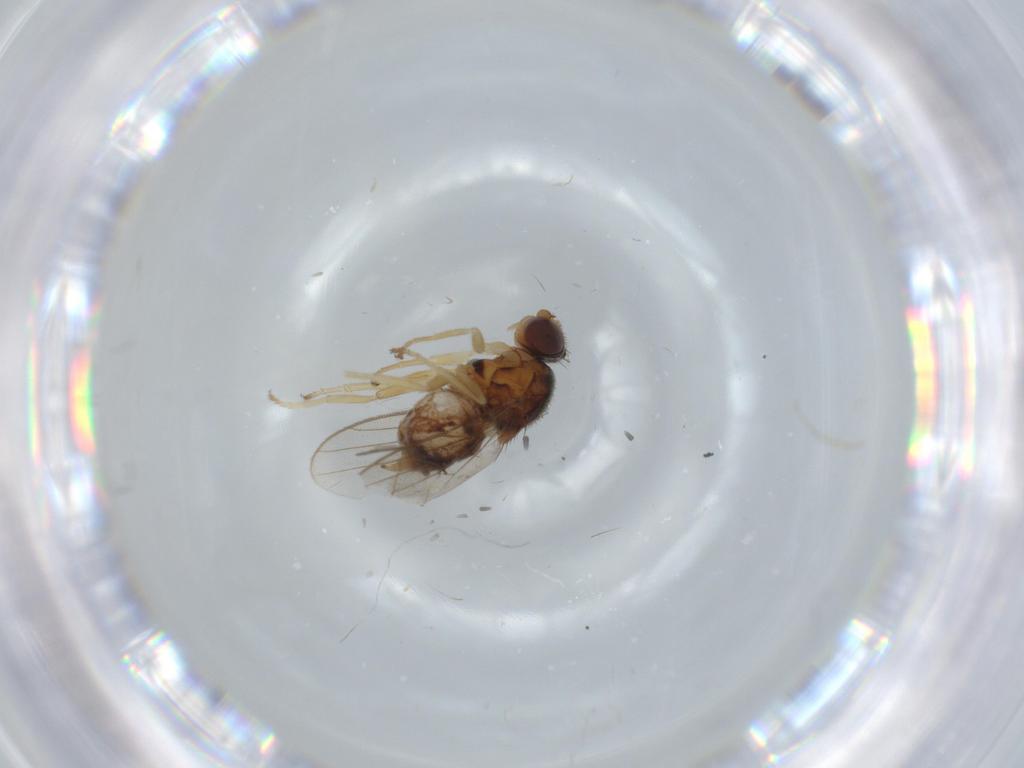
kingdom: Animalia
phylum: Arthropoda
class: Insecta
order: Diptera
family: Chloropidae
